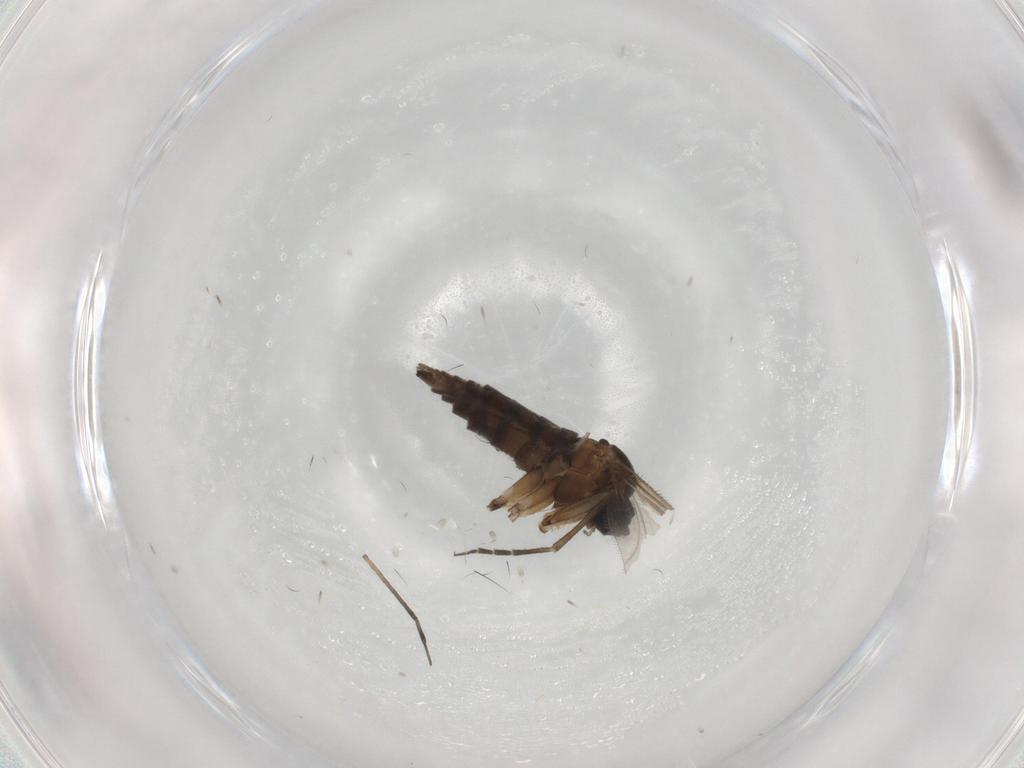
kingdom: Animalia
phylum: Arthropoda
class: Insecta
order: Diptera
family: Sciaridae
